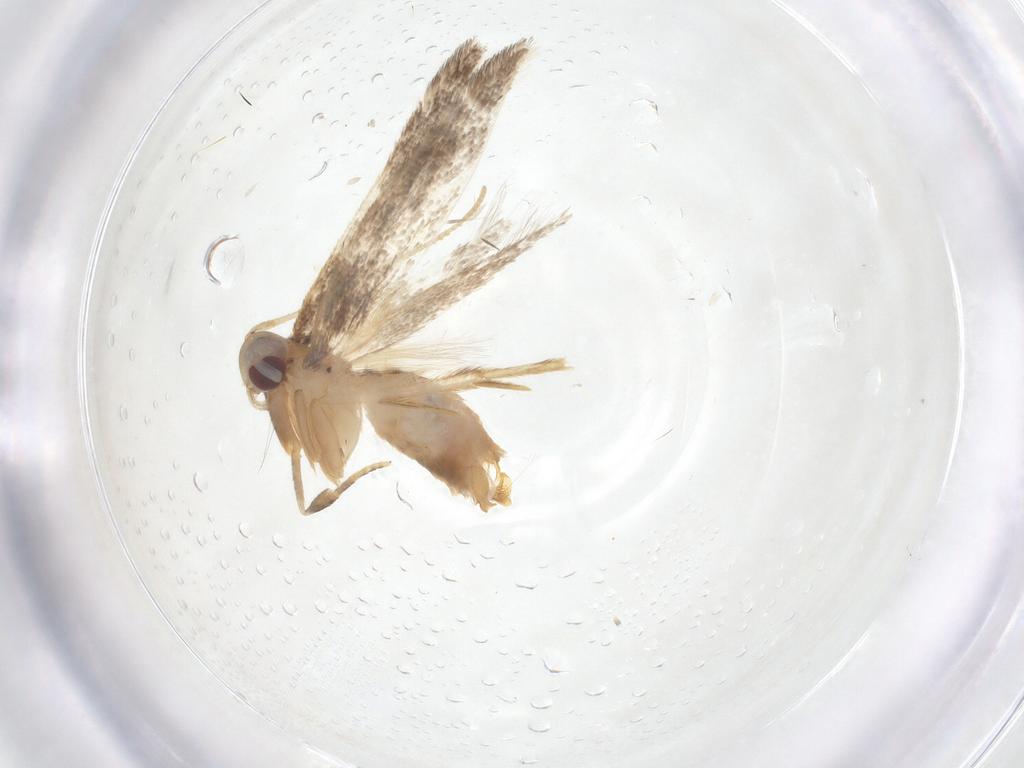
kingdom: Animalia
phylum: Arthropoda
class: Insecta
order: Lepidoptera
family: Cosmopterigidae
